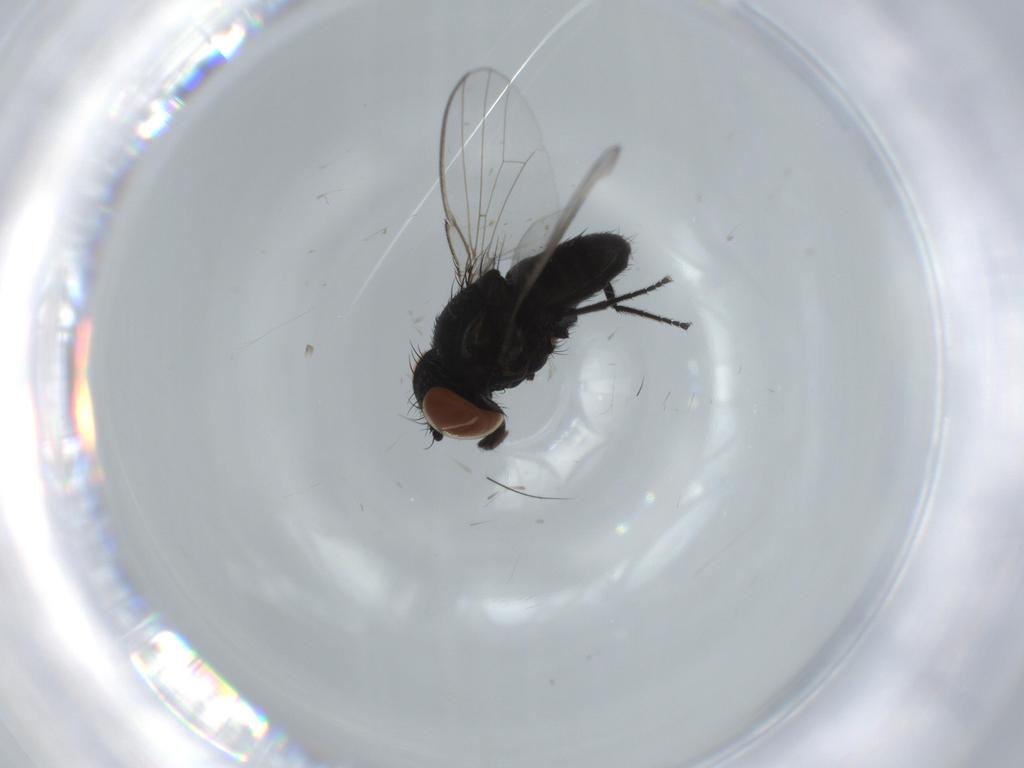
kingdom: Animalia
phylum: Arthropoda
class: Insecta
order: Diptera
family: Milichiidae
